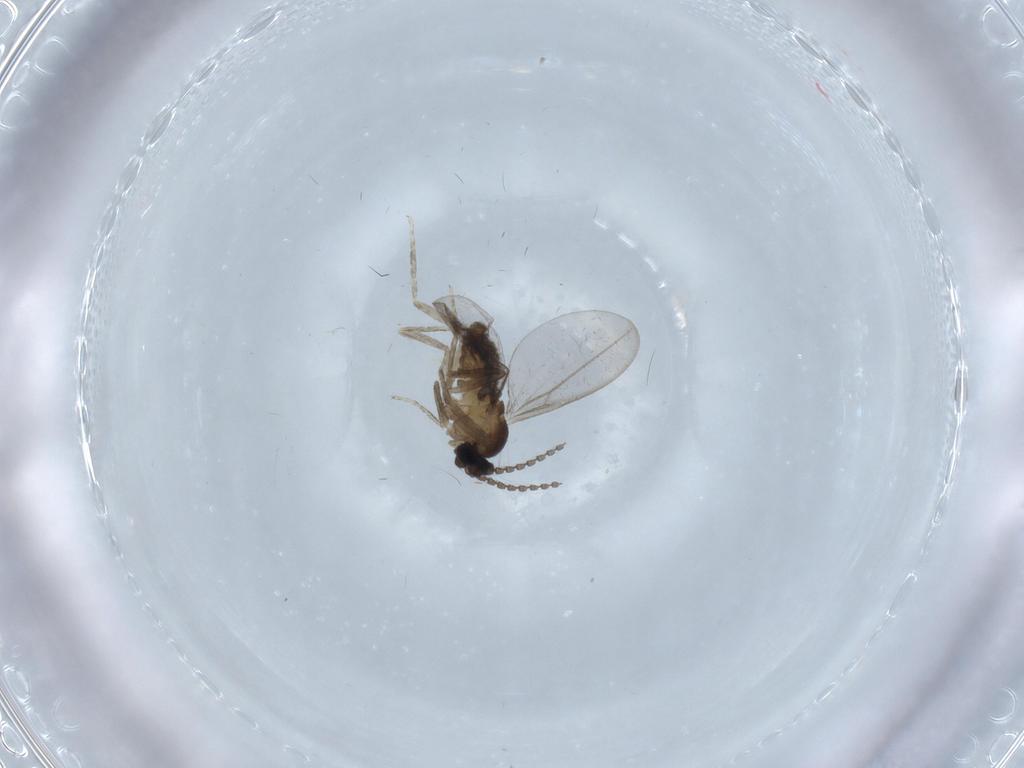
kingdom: Animalia
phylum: Arthropoda
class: Insecta
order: Diptera
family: Cecidomyiidae
